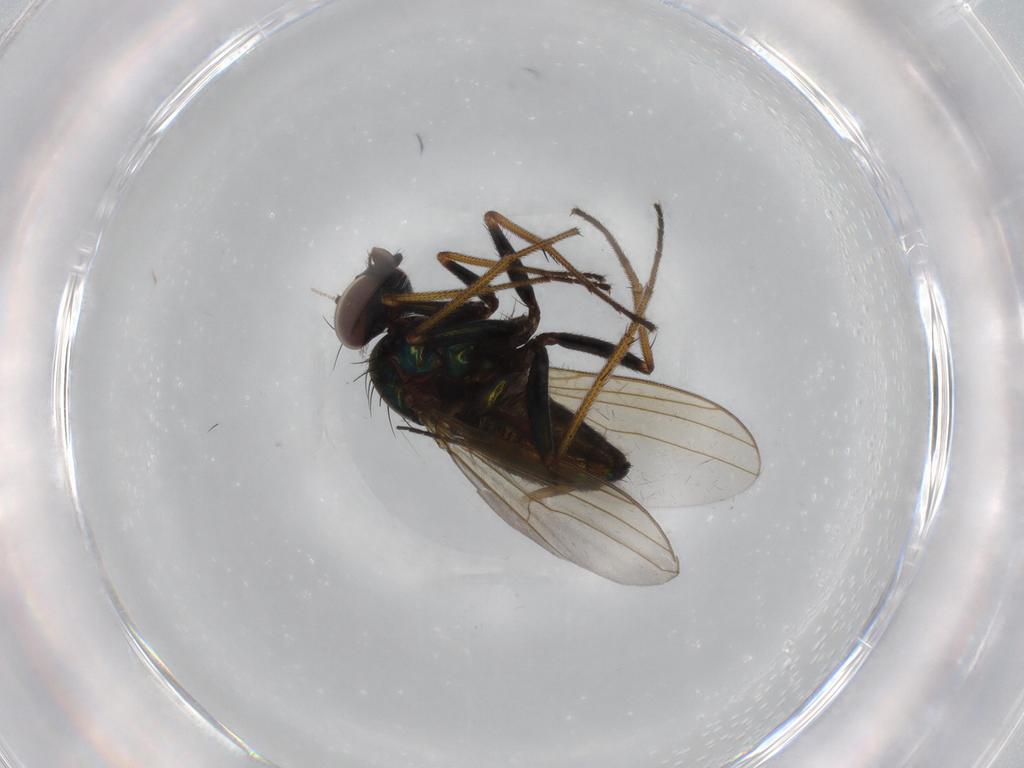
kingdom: Animalia
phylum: Arthropoda
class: Insecta
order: Diptera
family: Dolichopodidae
